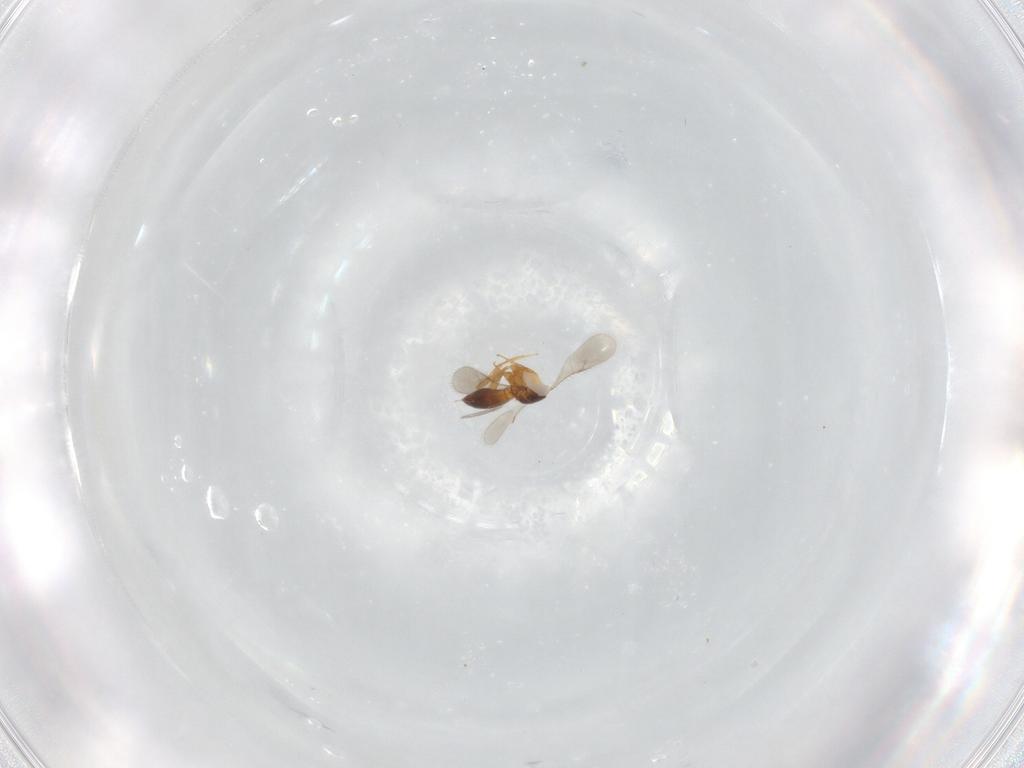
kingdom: Animalia
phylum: Arthropoda
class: Insecta
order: Hymenoptera
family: Scelionidae
